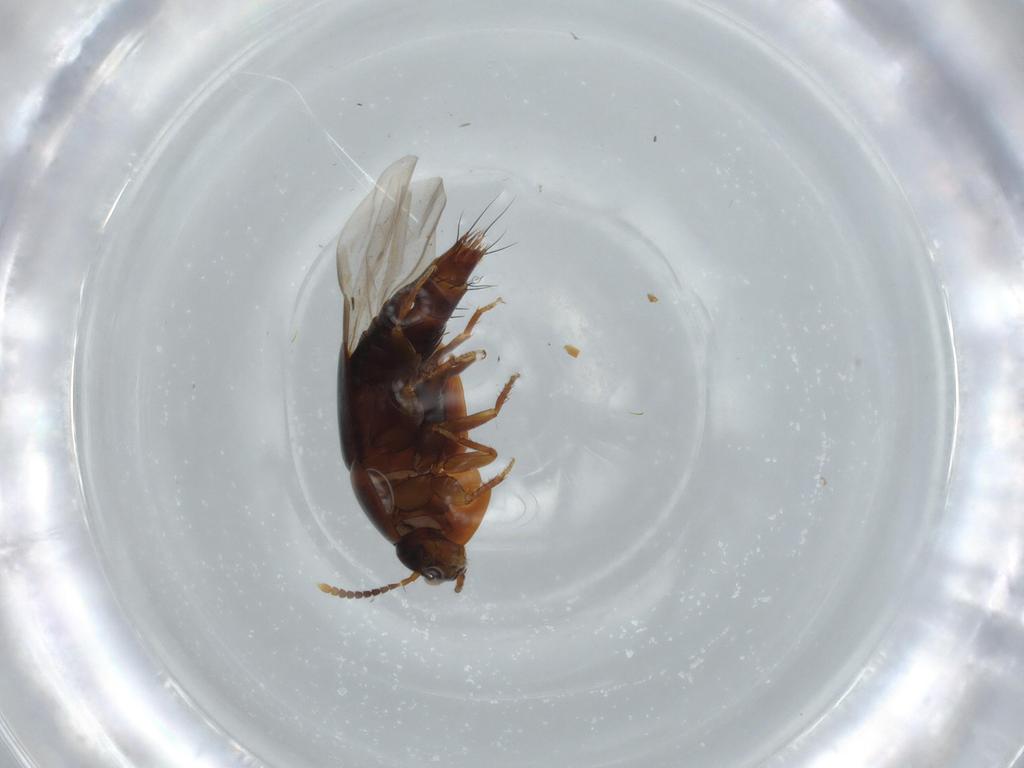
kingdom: Animalia
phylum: Arthropoda
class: Insecta
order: Coleoptera
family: Staphylinidae
